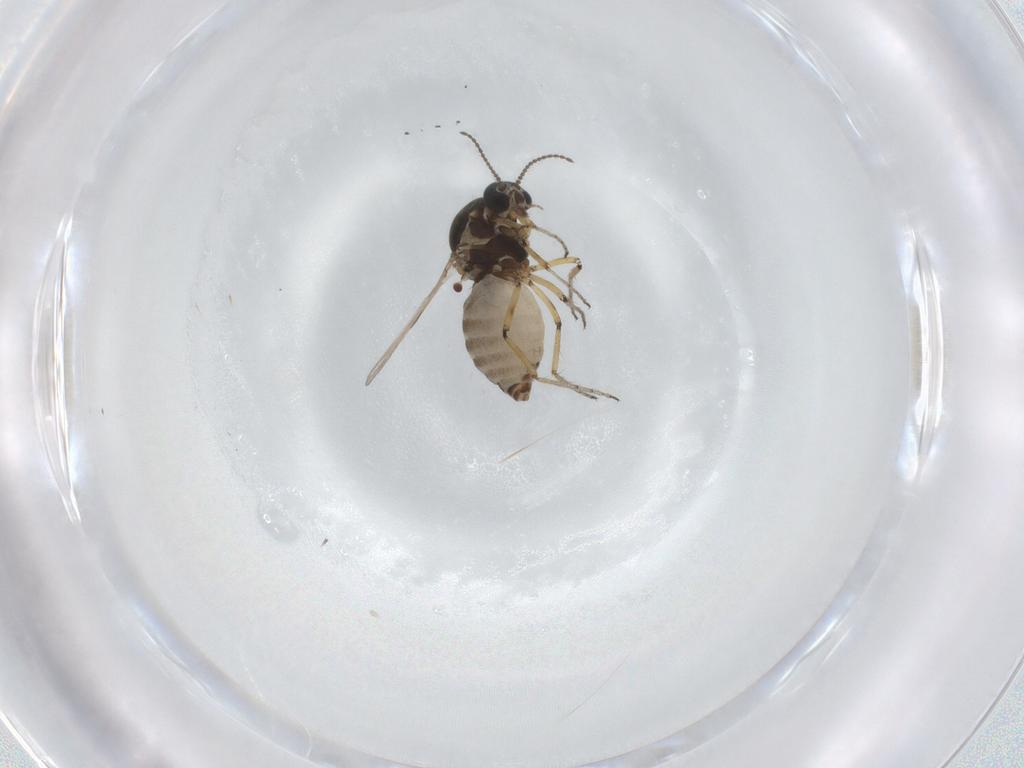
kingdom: Animalia
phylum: Arthropoda
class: Insecta
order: Diptera
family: Ceratopogonidae
